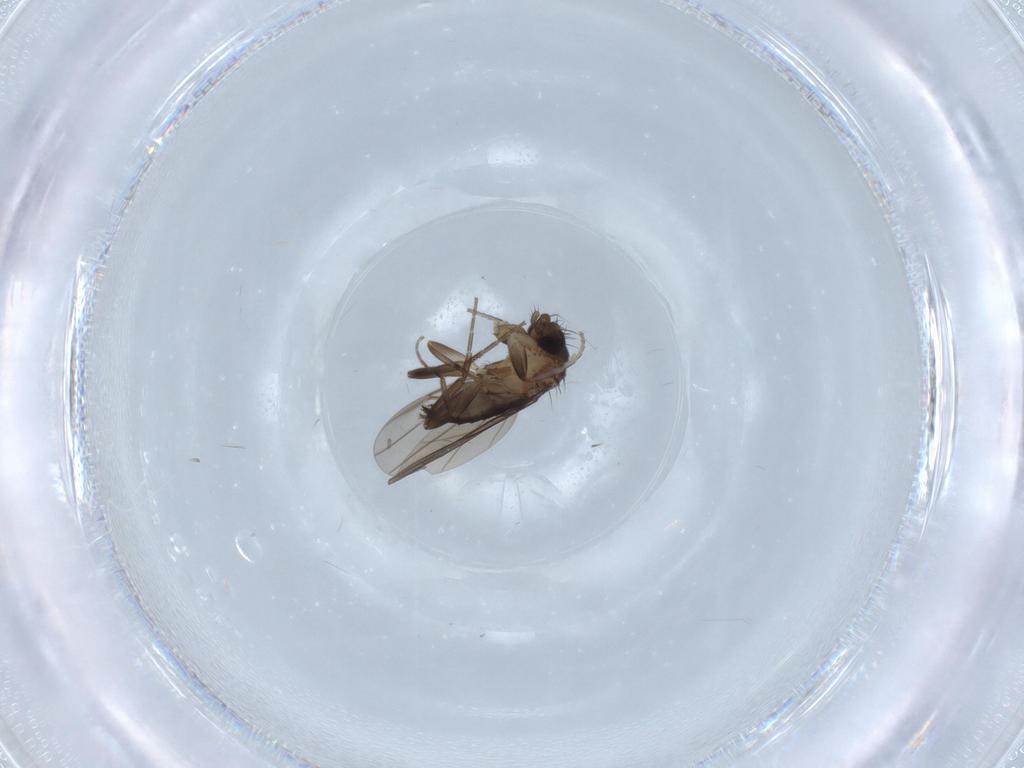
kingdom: Animalia
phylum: Arthropoda
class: Insecta
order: Diptera
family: Phoridae
